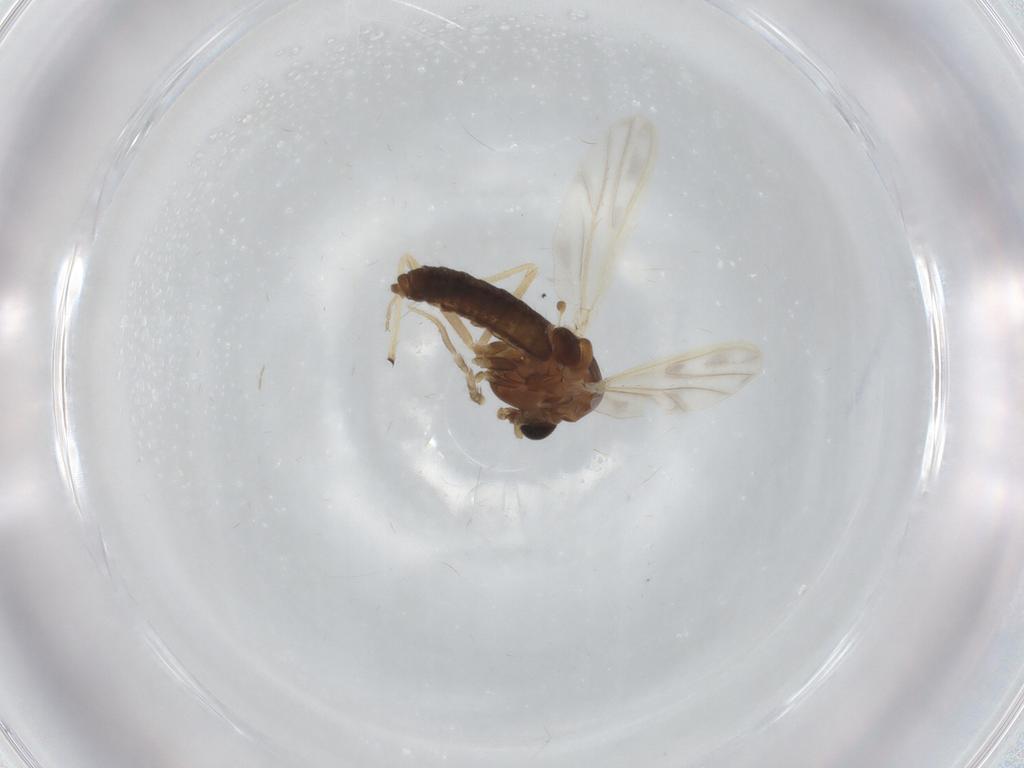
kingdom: Animalia
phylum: Arthropoda
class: Insecta
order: Diptera
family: Chironomidae
